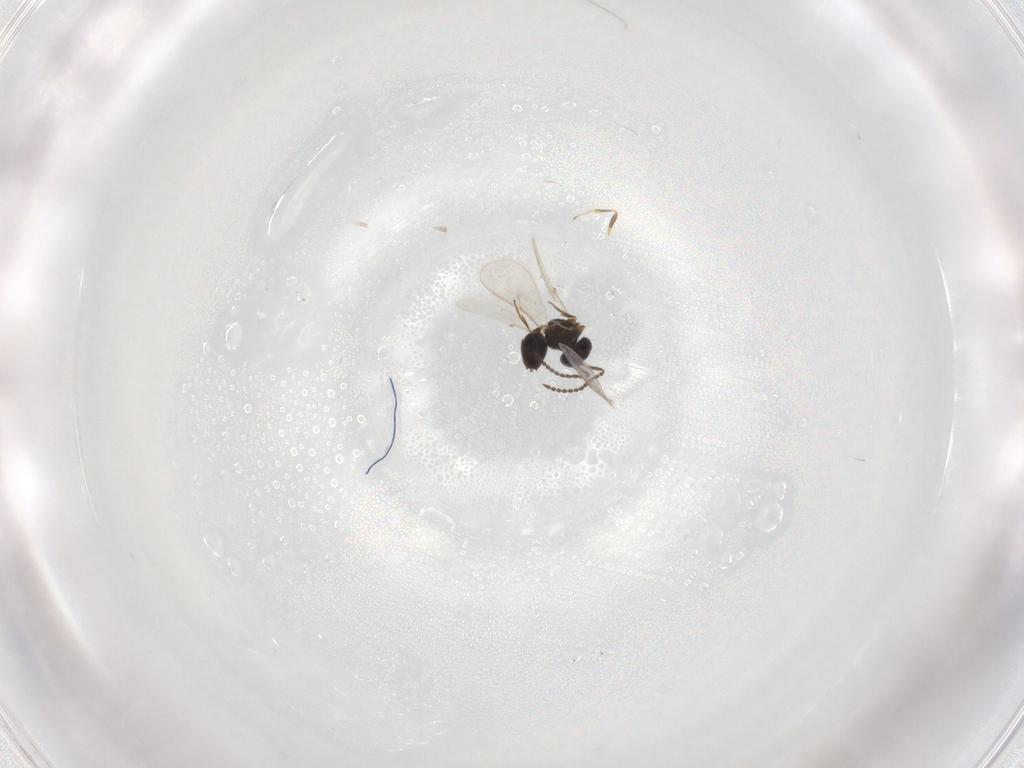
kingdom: Animalia
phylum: Arthropoda
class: Insecta
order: Hymenoptera
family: Scelionidae
